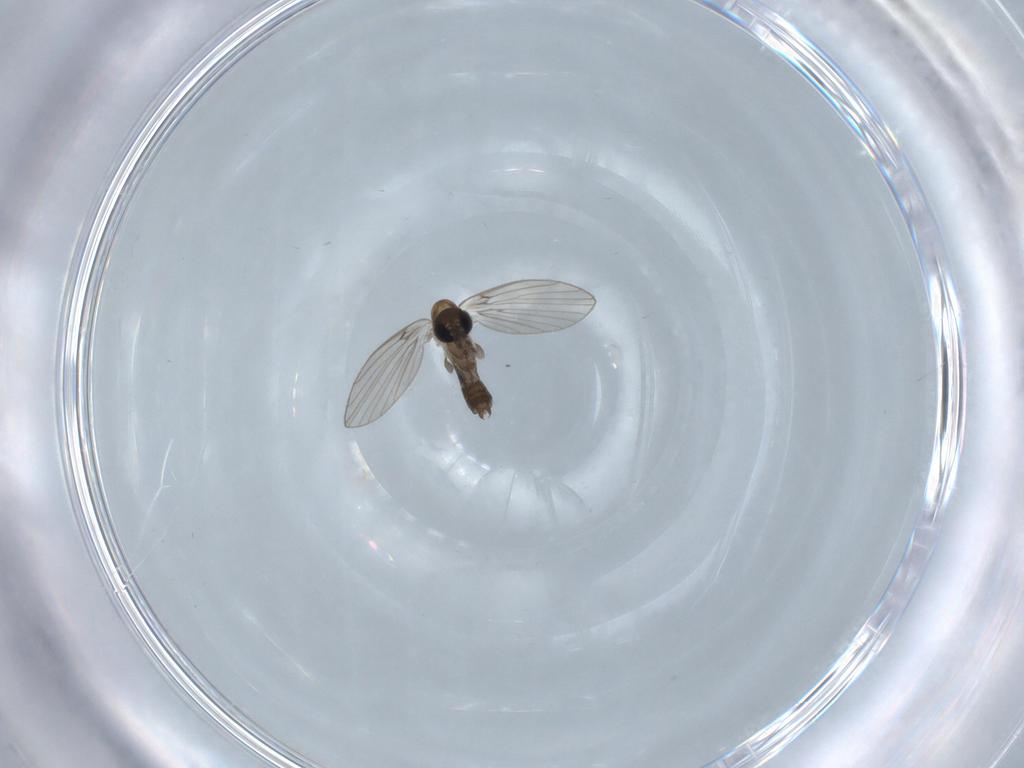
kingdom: Animalia
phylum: Arthropoda
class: Insecta
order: Diptera
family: Psychodidae
